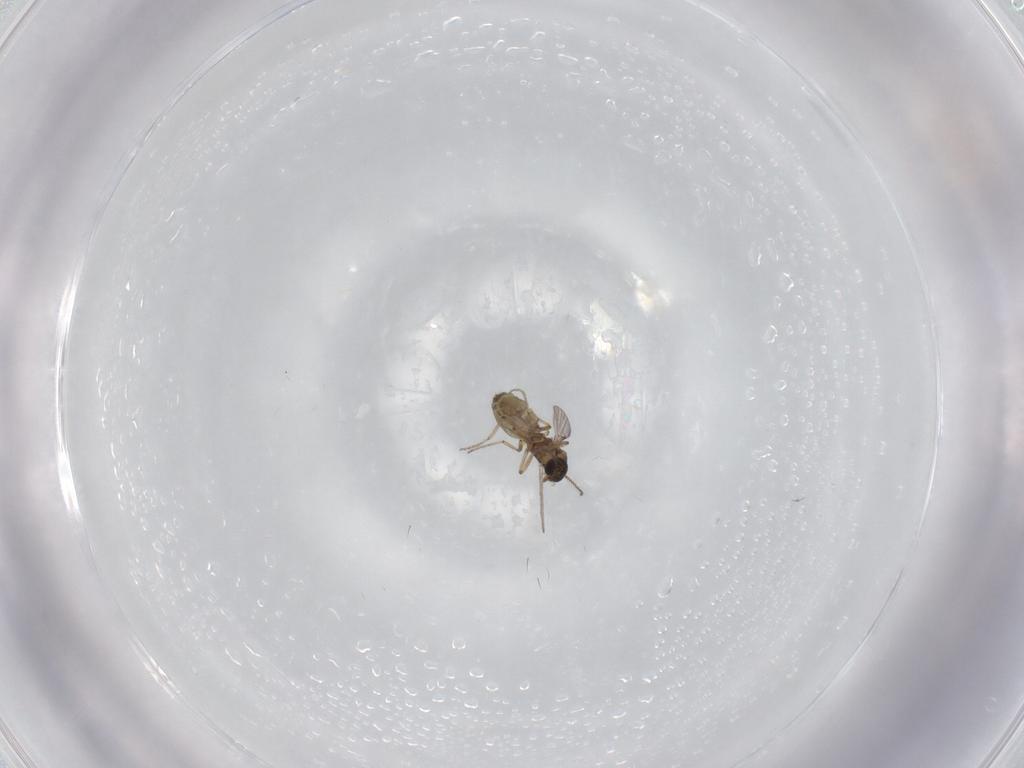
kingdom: Animalia
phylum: Arthropoda
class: Insecta
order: Diptera
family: Ceratopogonidae
